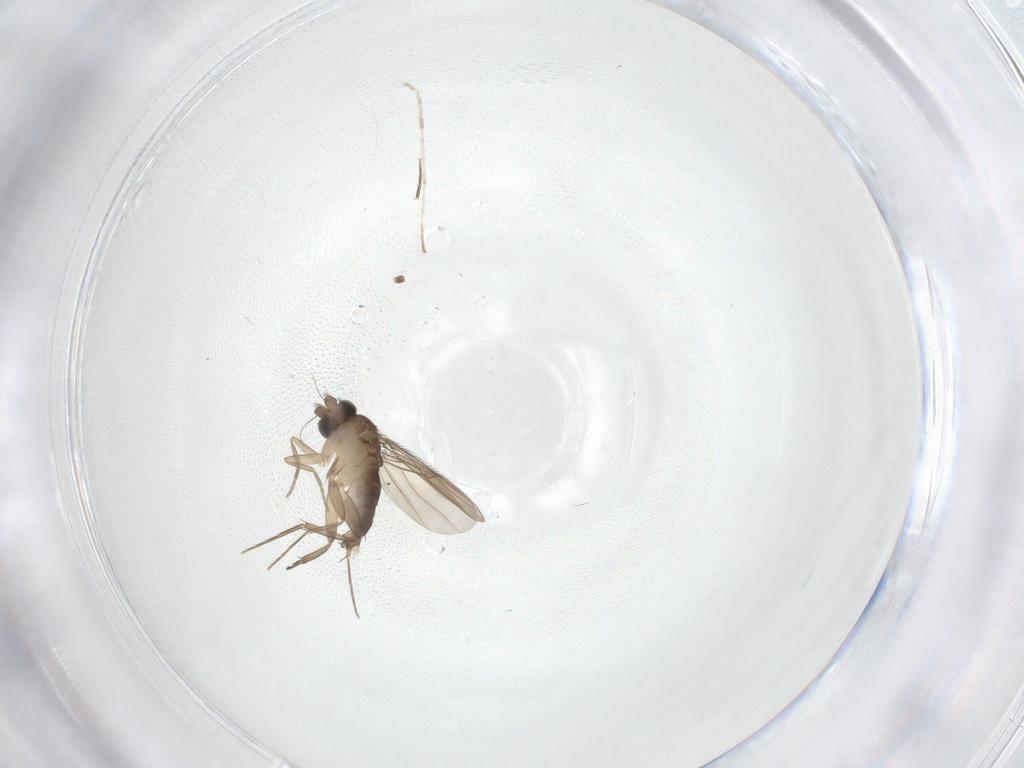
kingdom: Animalia
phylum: Arthropoda
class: Insecta
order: Diptera
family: Phoridae
